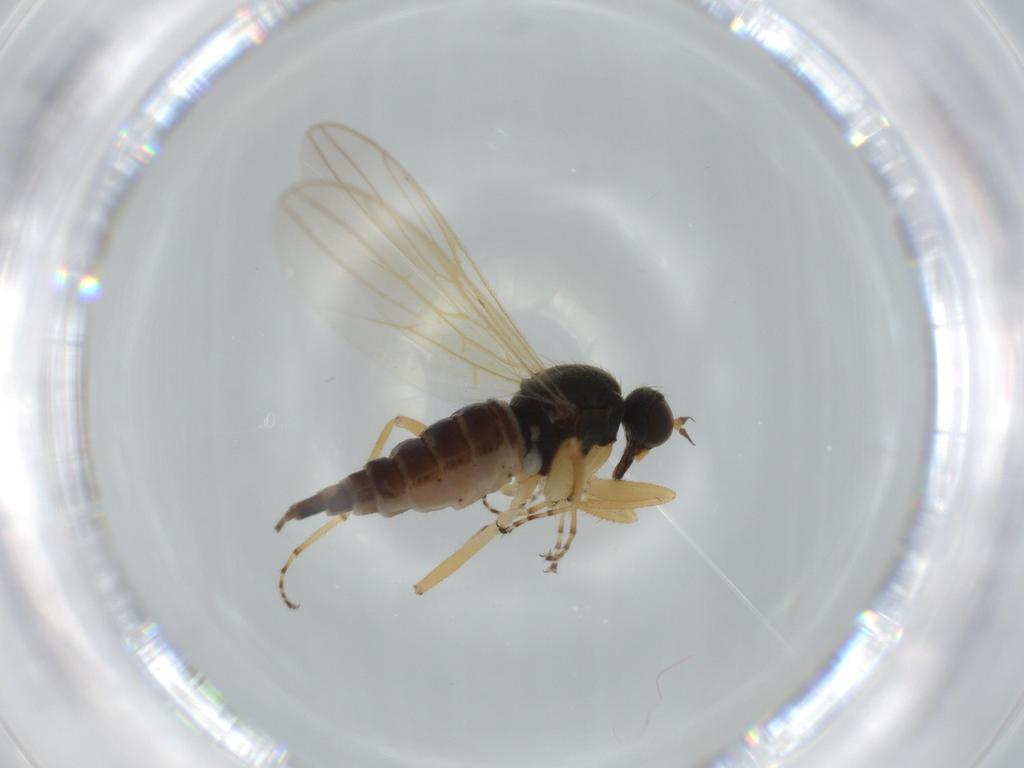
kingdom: Animalia
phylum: Arthropoda
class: Insecta
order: Diptera
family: Hybotidae
